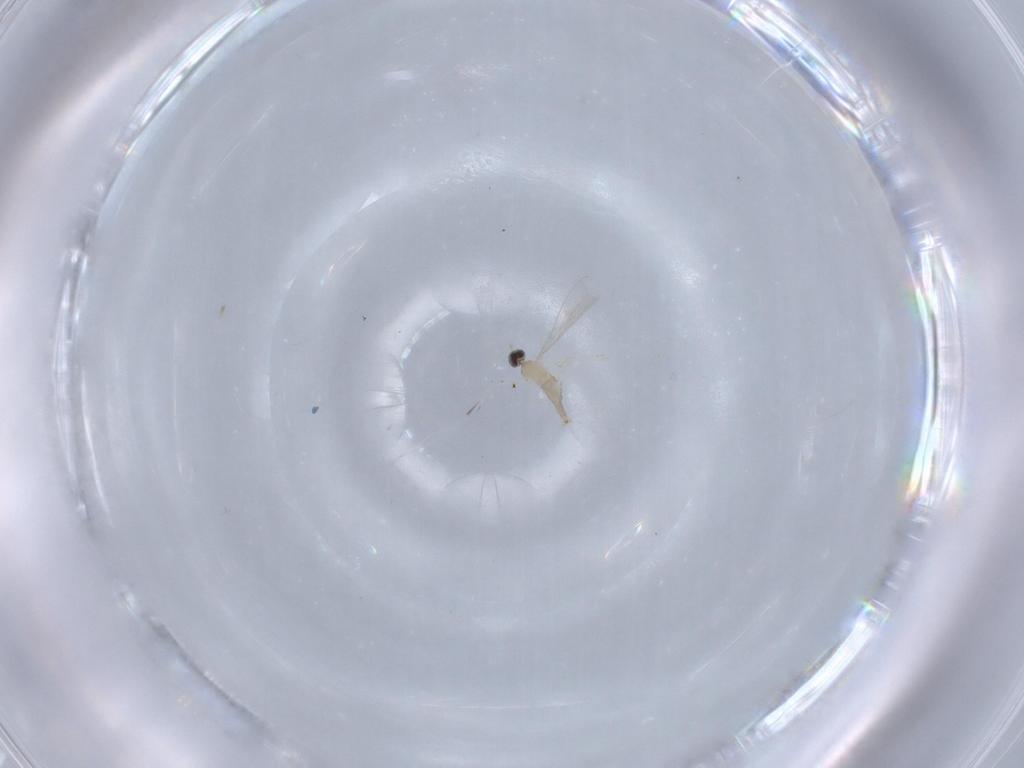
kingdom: Animalia
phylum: Arthropoda
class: Insecta
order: Diptera
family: Cecidomyiidae
